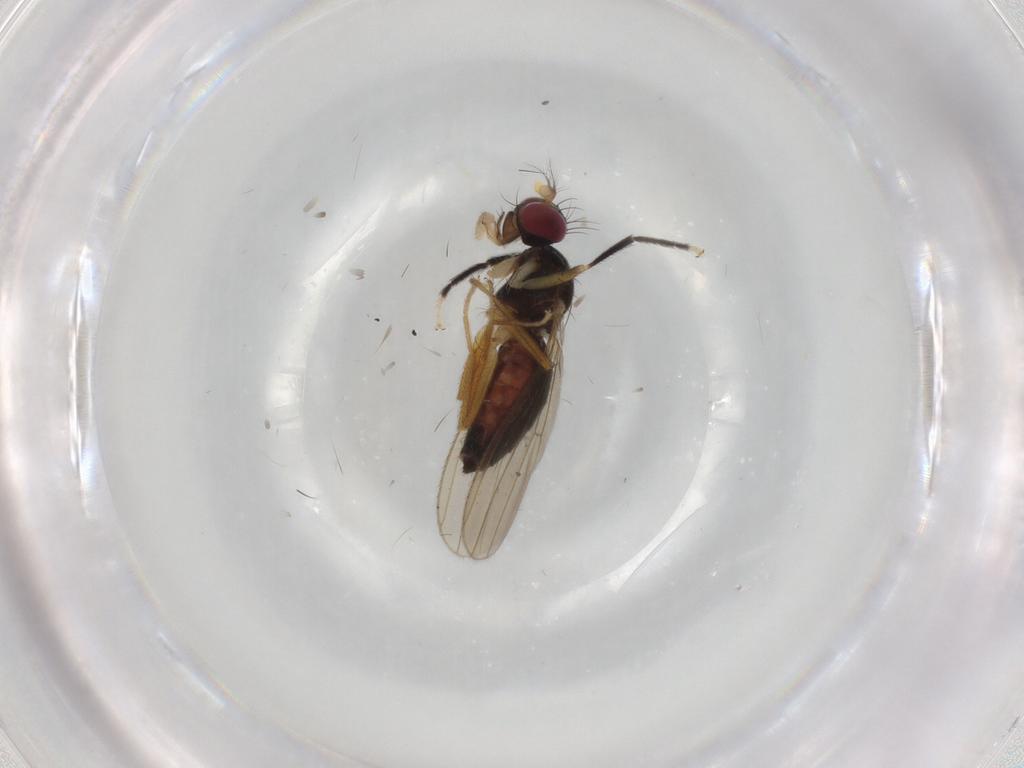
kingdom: Animalia
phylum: Arthropoda
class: Insecta
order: Diptera
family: Anthomyzidae
